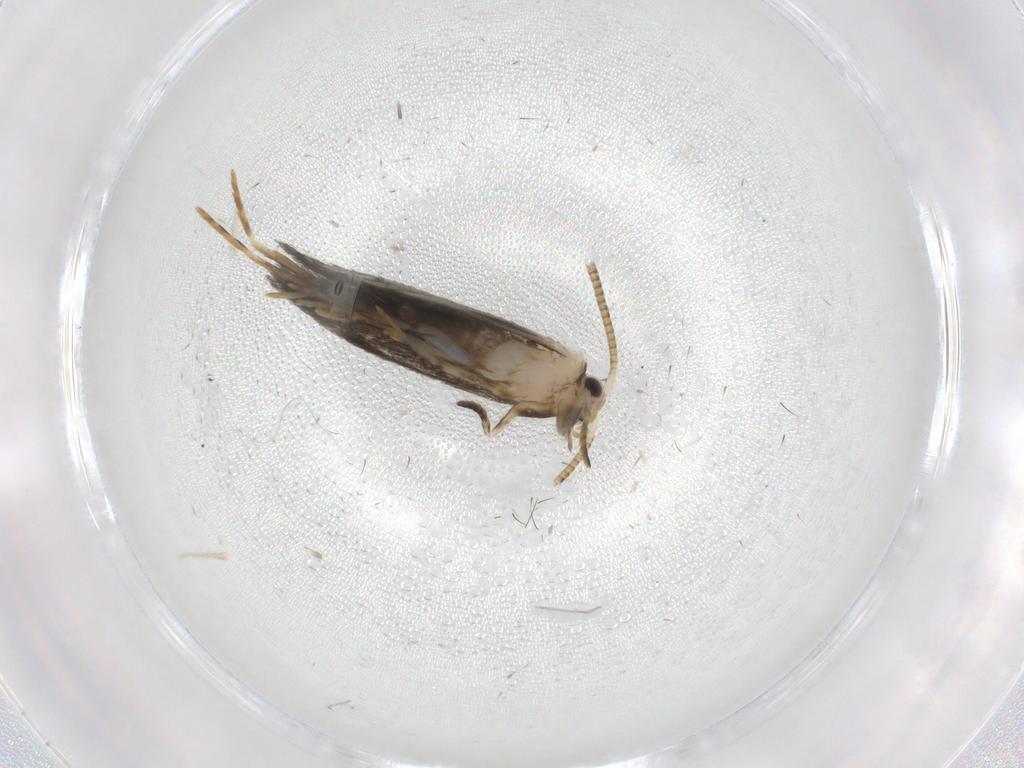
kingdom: Animalia
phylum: Arthropoda
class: Insecta
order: Lepidoptera
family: Tineidae
